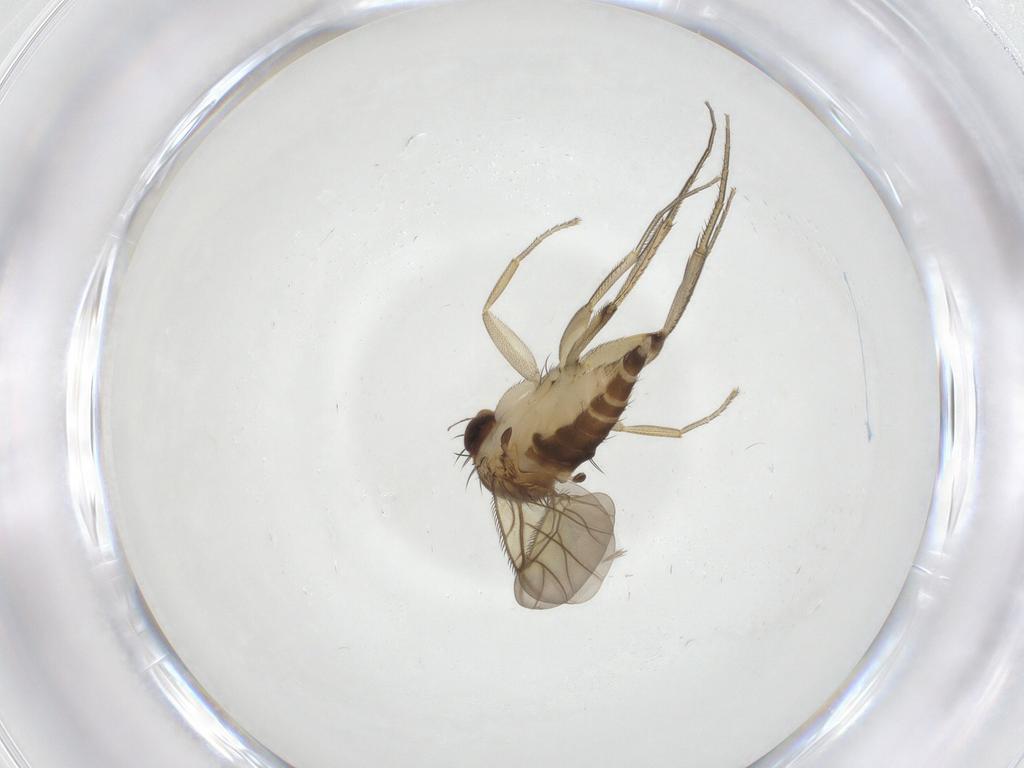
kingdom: Animalia
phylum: Arthropoda
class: Insecta
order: Diptera
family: Phoridae
